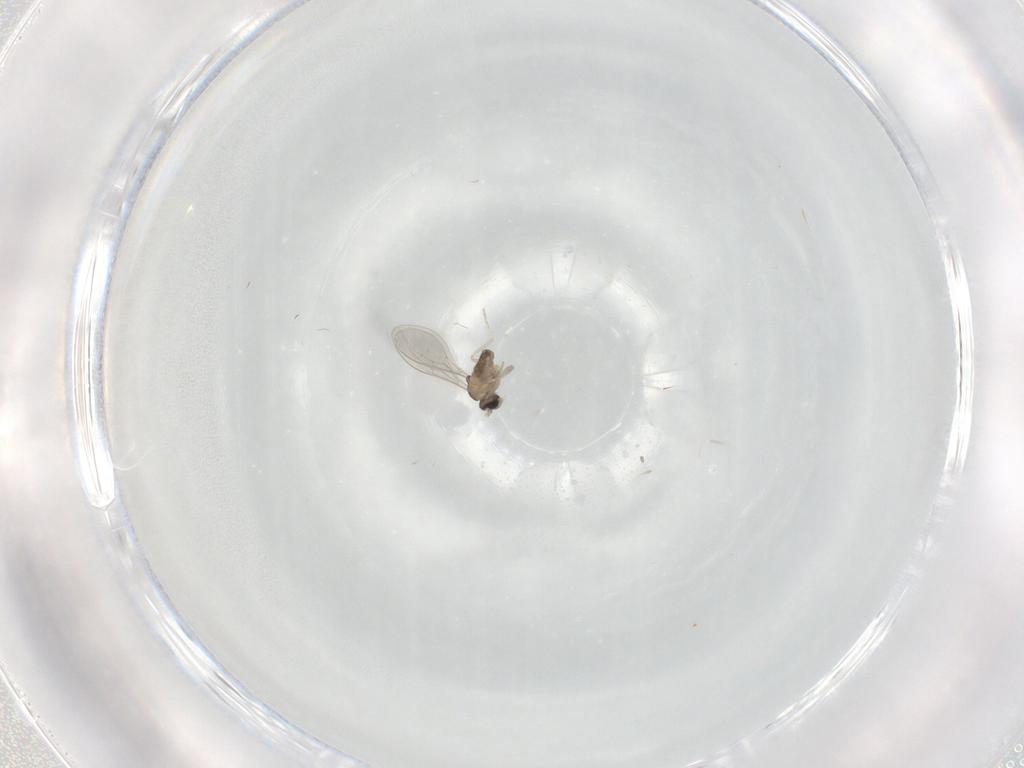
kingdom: Animalia
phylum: Arthropoda
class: Insecta
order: Diptera
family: Cecidomyiidae
